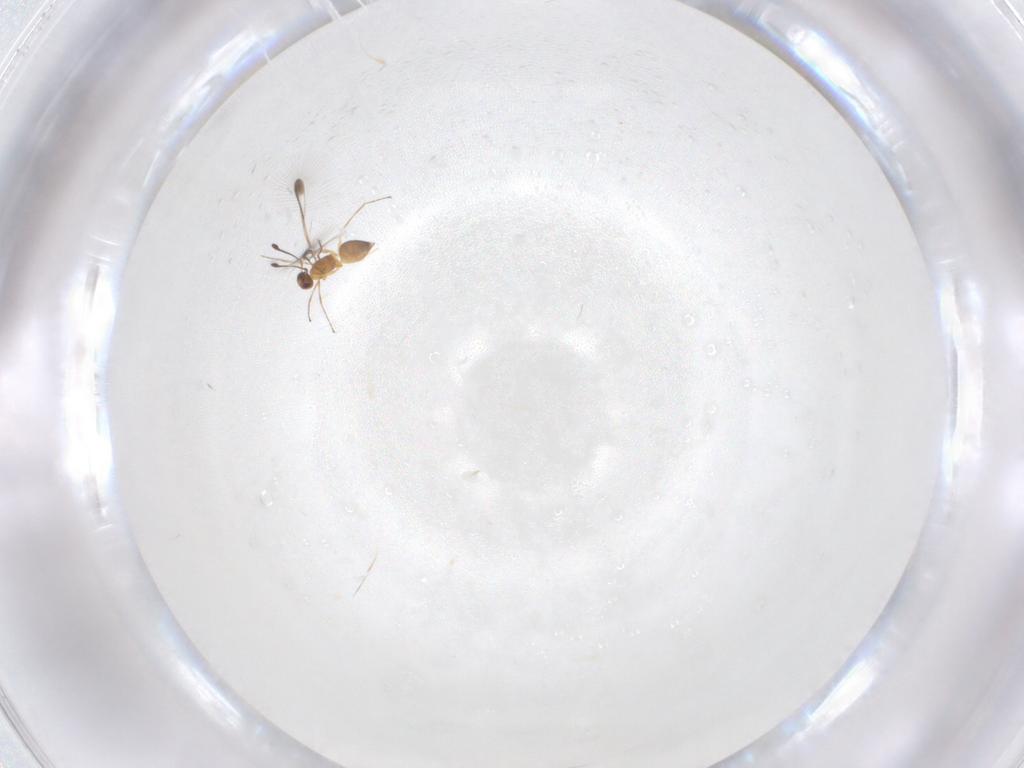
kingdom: Animalia
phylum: Arthropoda
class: Insecta
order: Hymenoptera
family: Mymaridae
